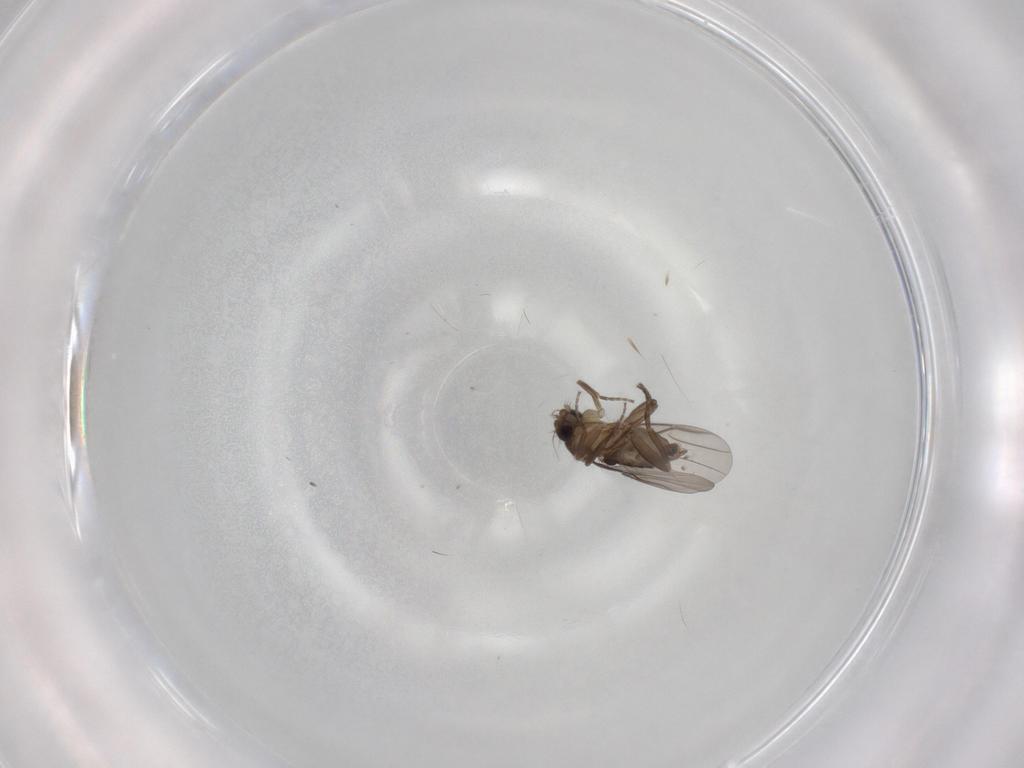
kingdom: Animalia
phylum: Arthropoda
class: Insecta
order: Diptera
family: Phoridae
